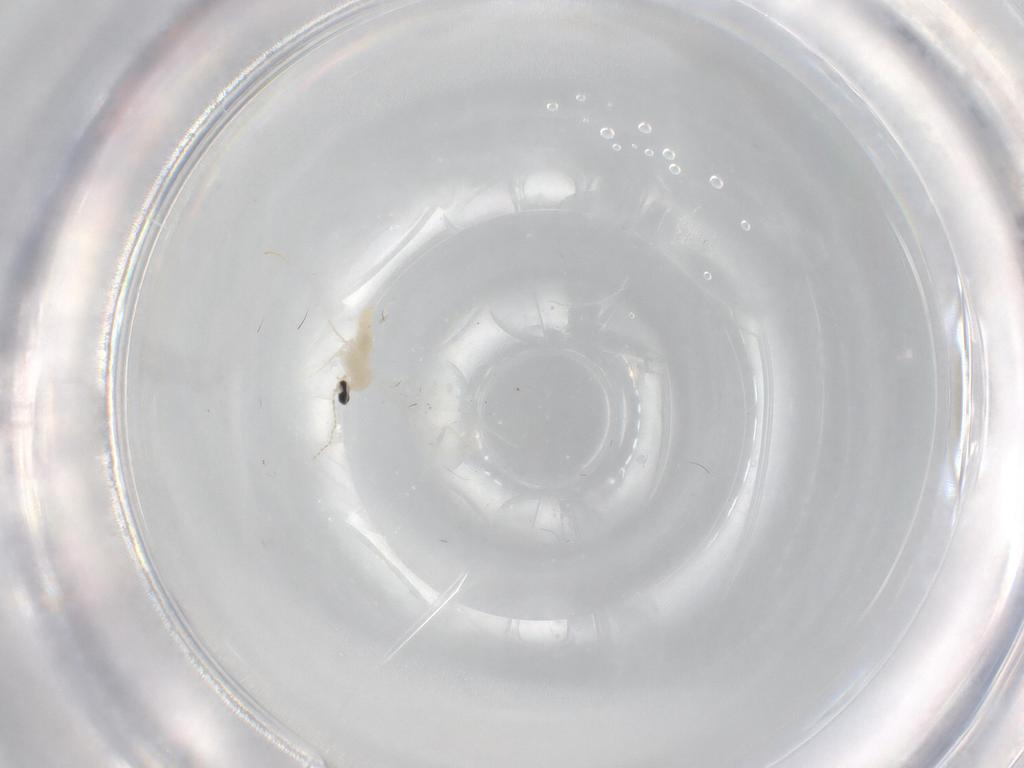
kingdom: Animalia
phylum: Arthropoda
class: Insecta
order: Diptera
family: Cecidomyiidae
